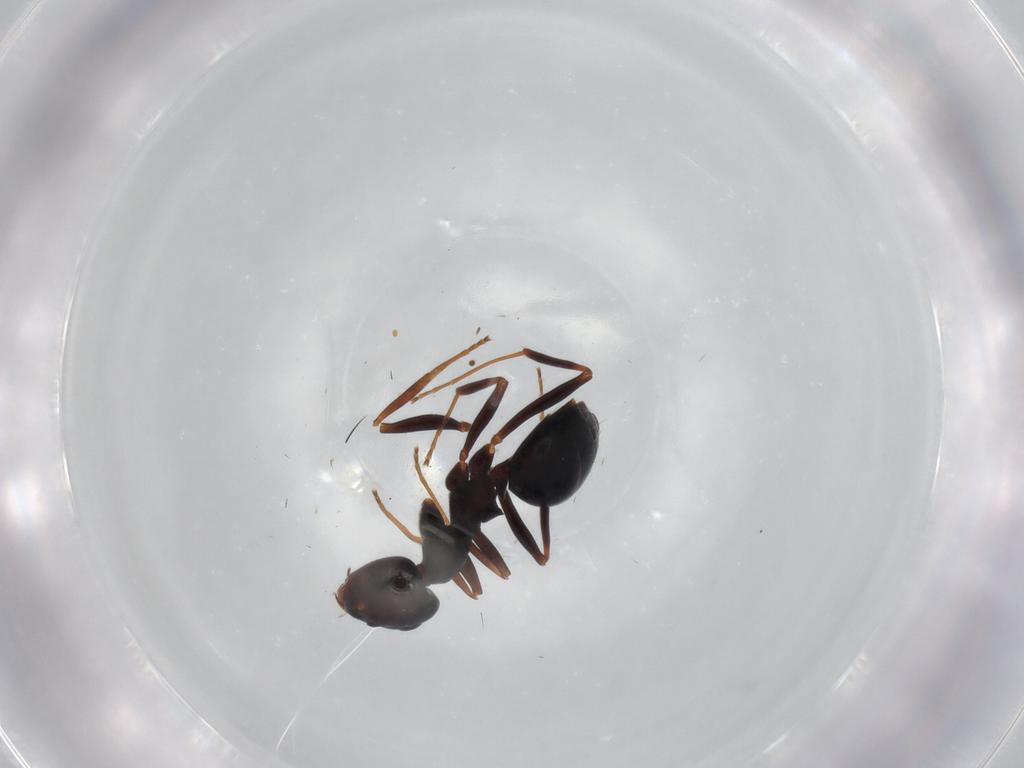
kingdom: Animalia
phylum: Arthropoda
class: Insecta
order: Hymenoptera
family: Formicidae
